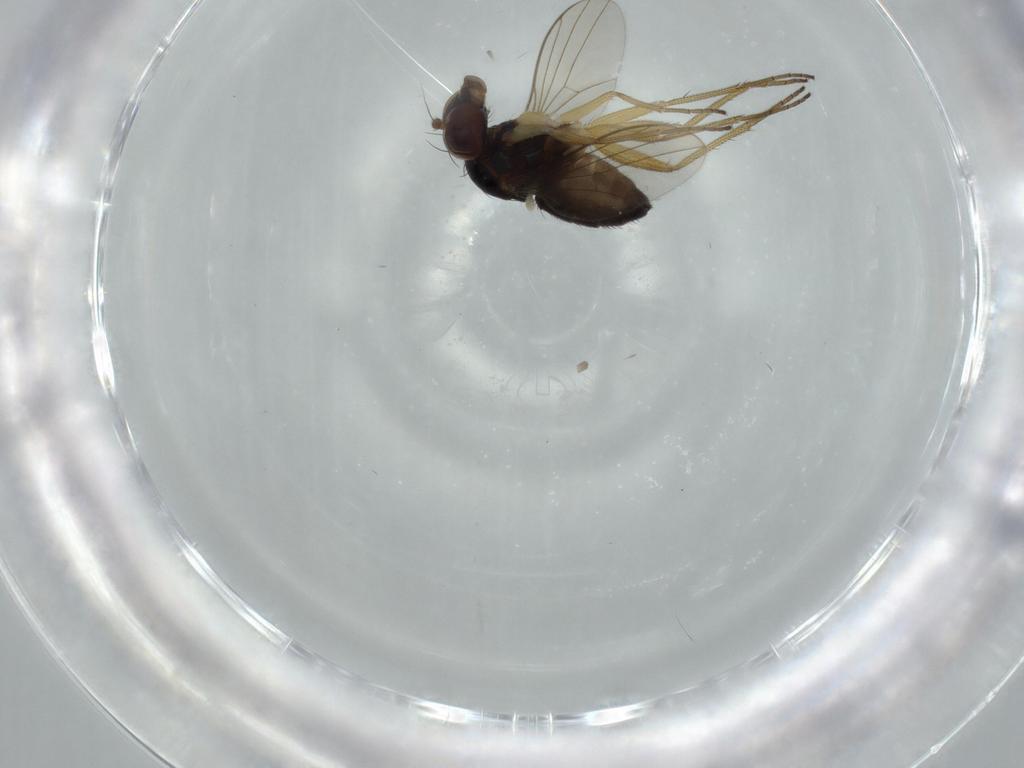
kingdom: Animalia
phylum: Arthropoda
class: Insecta
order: Diptera
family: Dolichopodidae
